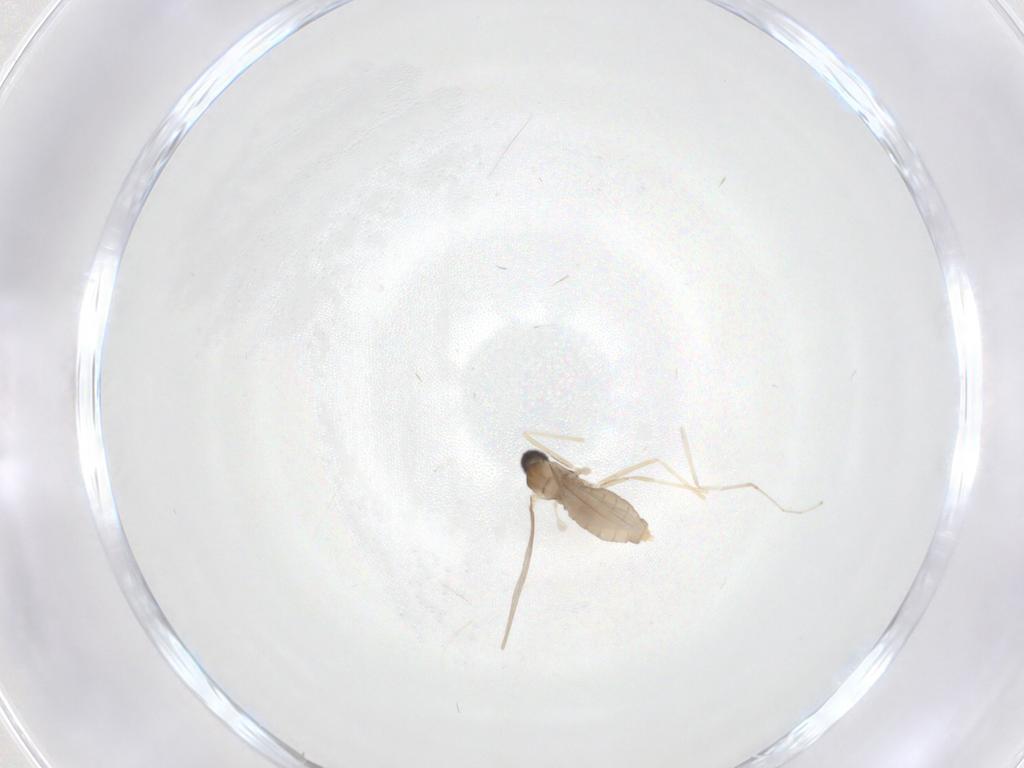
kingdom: Animalia
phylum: Arthropoda
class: Insecta
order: Diptera
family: Cecidomyiidae
